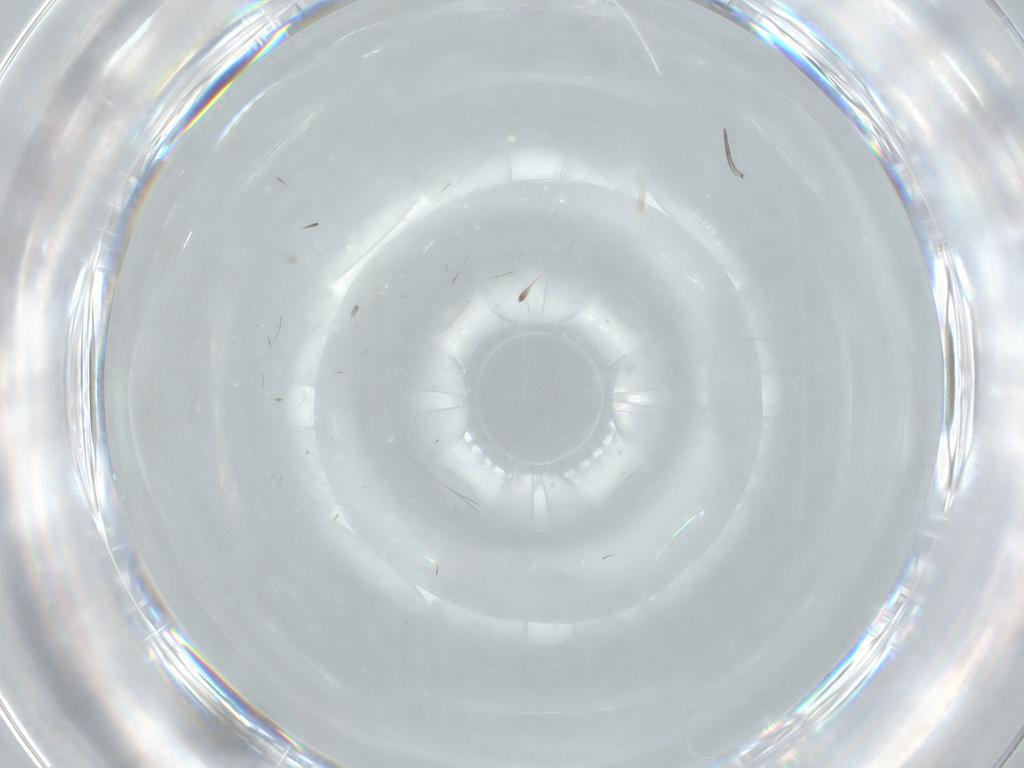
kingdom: Animalia
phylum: Arthropoda
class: Insecta
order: Hymenoptera
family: Scelionidae
